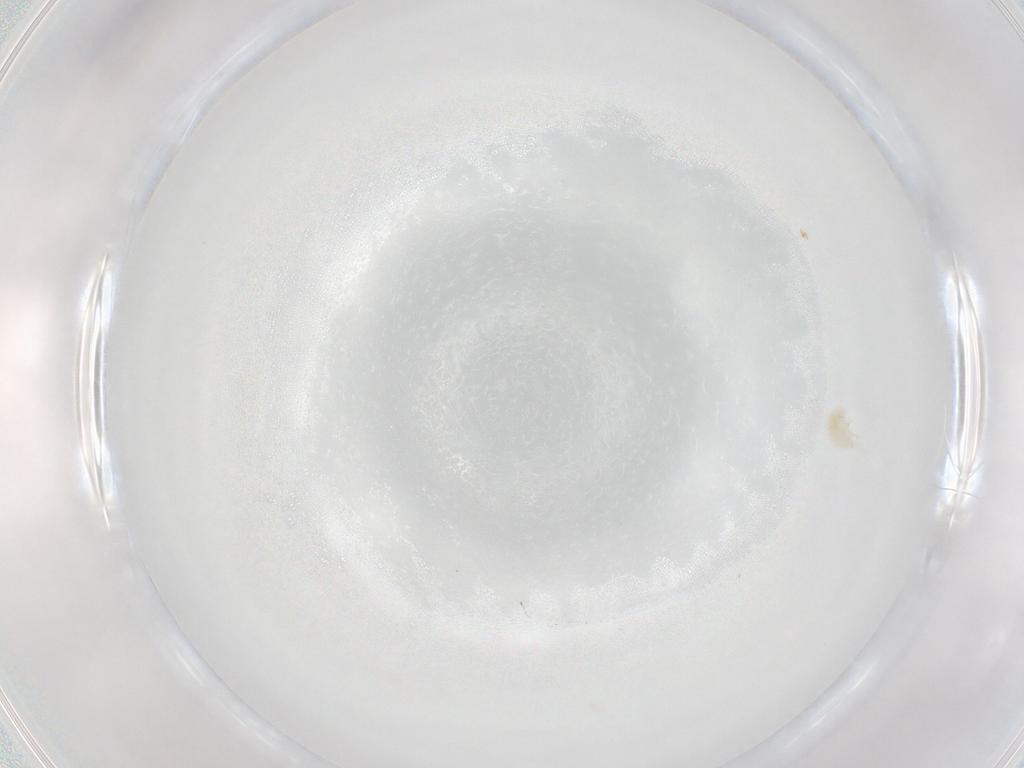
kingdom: Animalia
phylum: Arthropoda
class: Arachnida
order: Trombidiformes
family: Eupodidae
